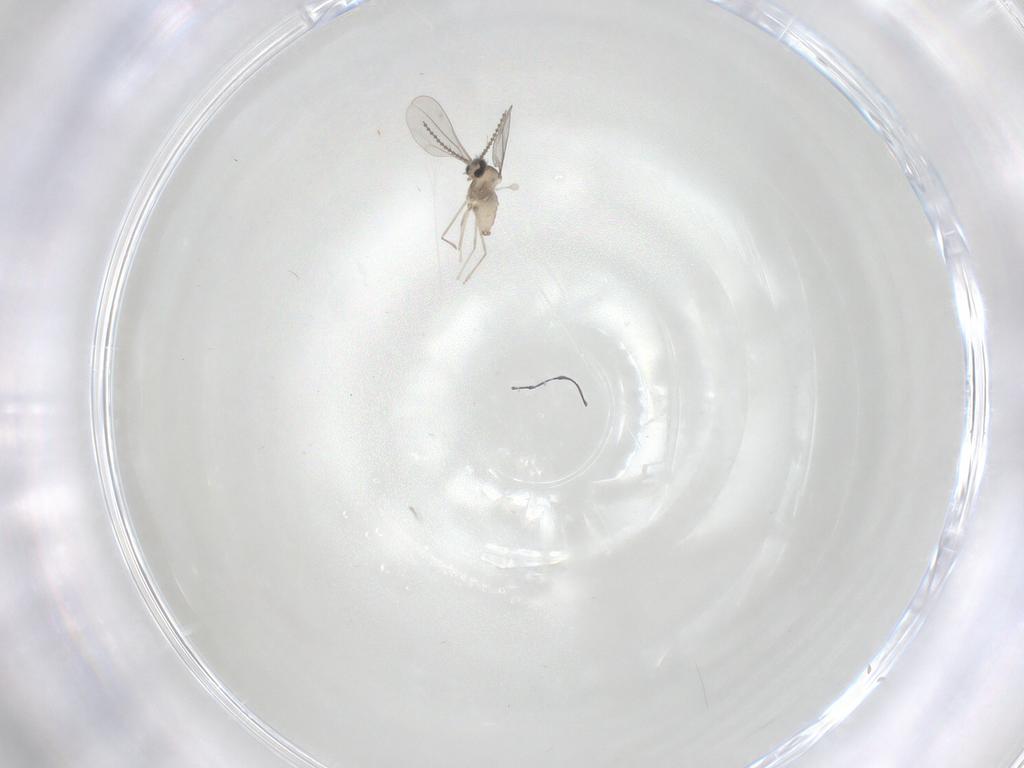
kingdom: Animalia
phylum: Arthropoda
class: Insecta
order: Diptera
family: Cecidomyiidae
